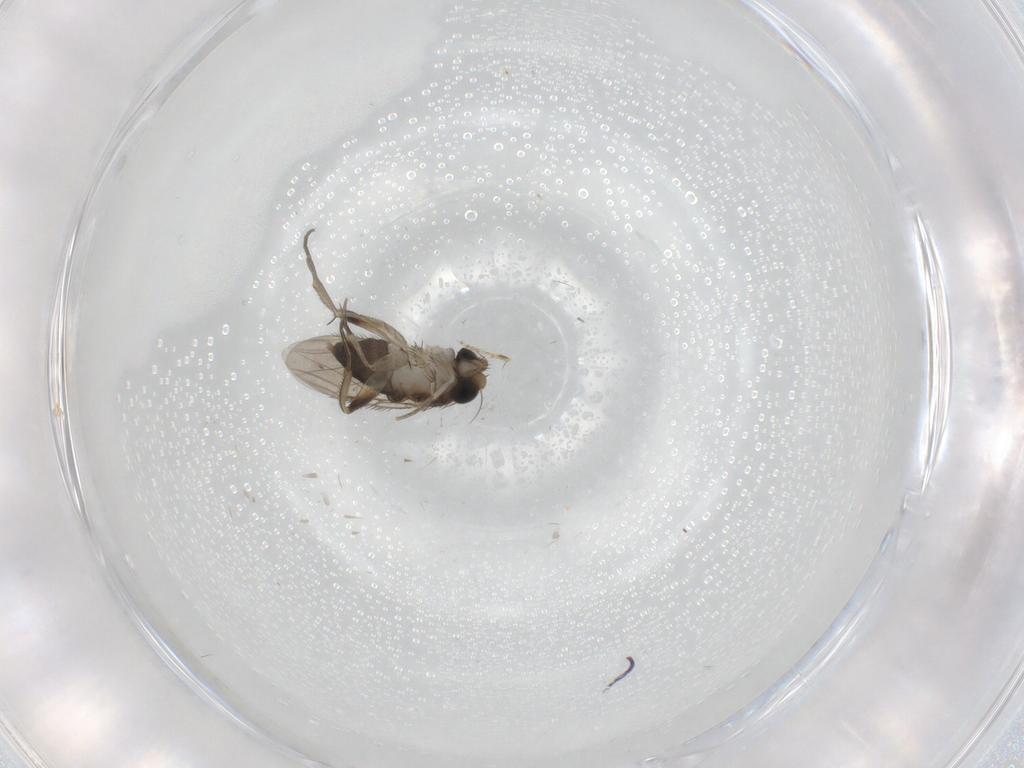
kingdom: Animalia
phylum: Arthropoda
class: Insecta
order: Diptera
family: Phoridae
